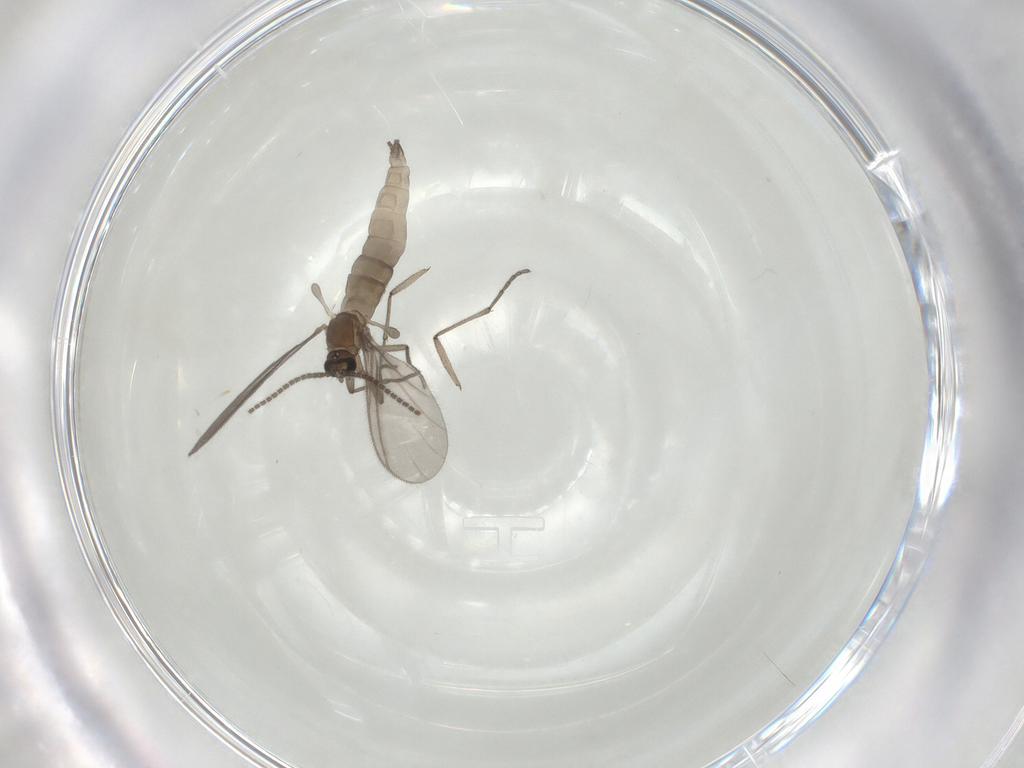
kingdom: Animalia
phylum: Arthropoda
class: Insecta
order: Diptera
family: Sciaridae
